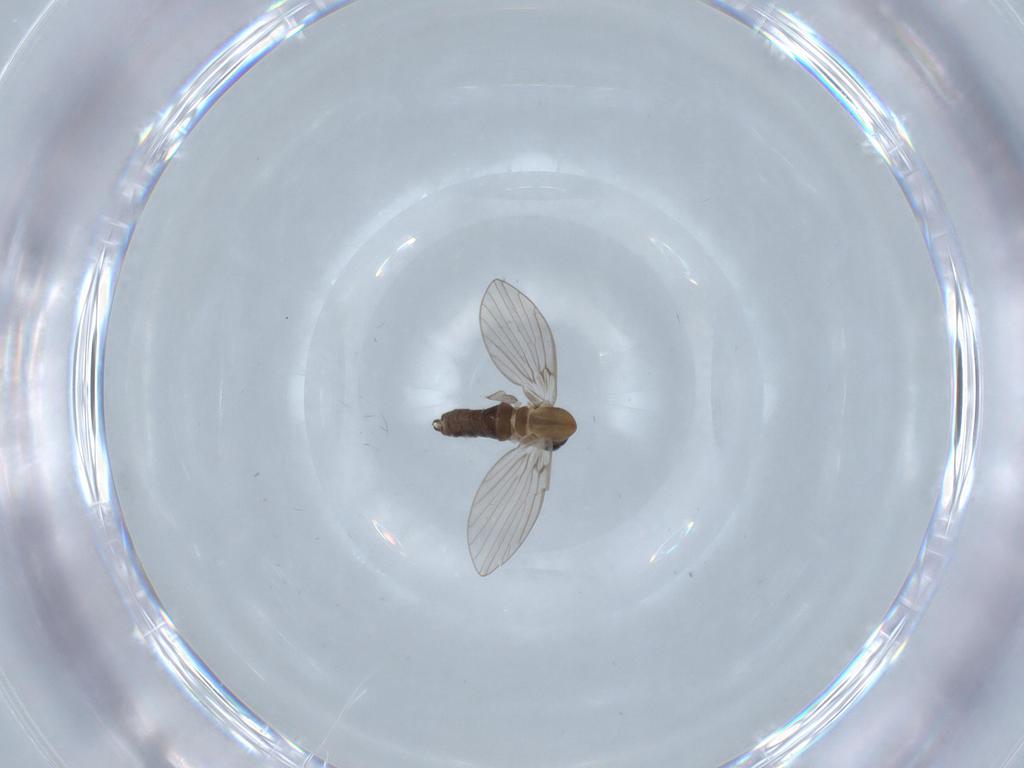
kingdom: Animalia
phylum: Arthropoda
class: Insecta
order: Diptera
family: Psychodidae
